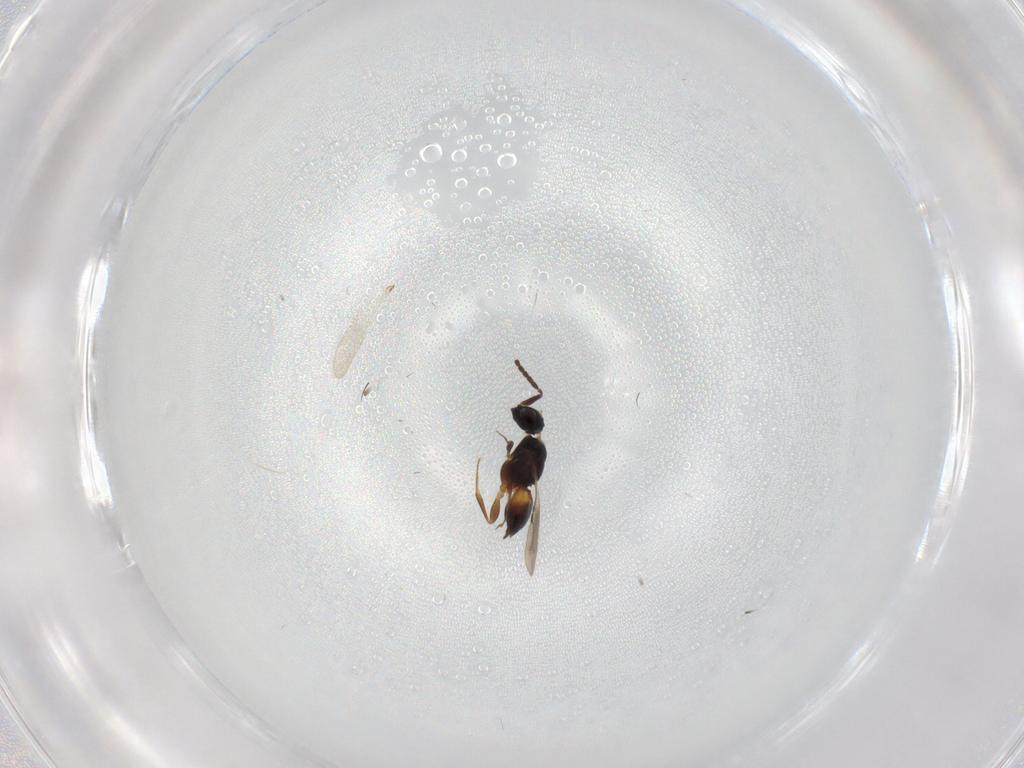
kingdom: Animalia
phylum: Arthropoda
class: Insecta
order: Hymenoptera
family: Ceraphronidae
